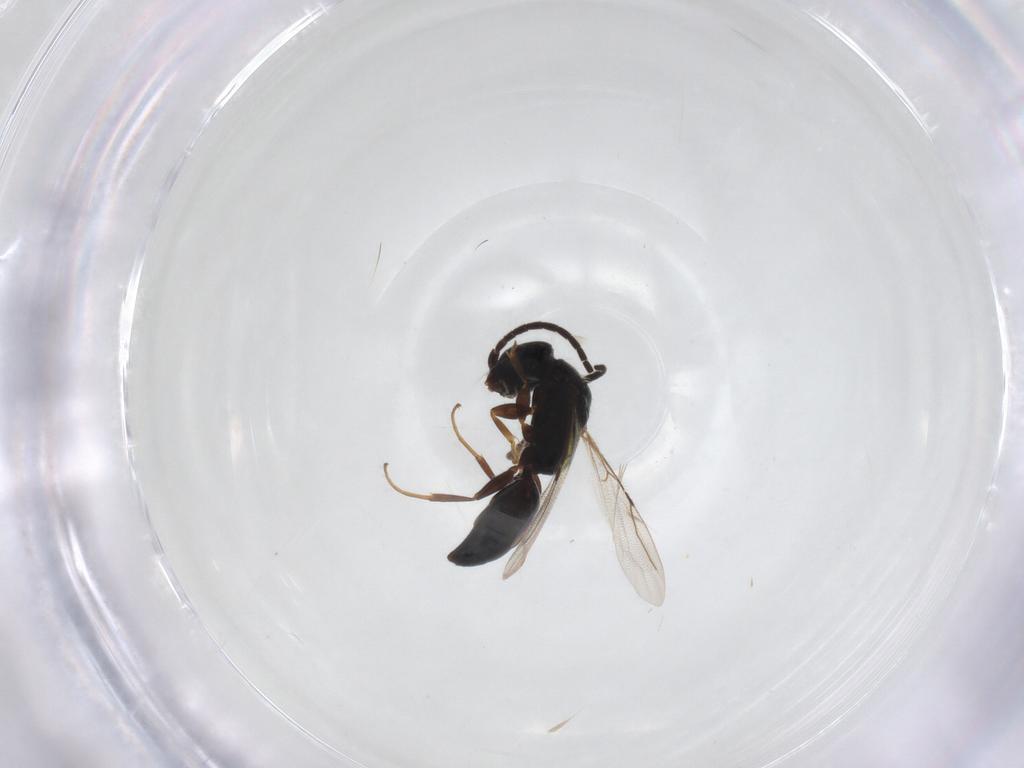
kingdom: Animalia
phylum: Arthropoda
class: Insecta
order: Hymenoptera
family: Bethylidae
